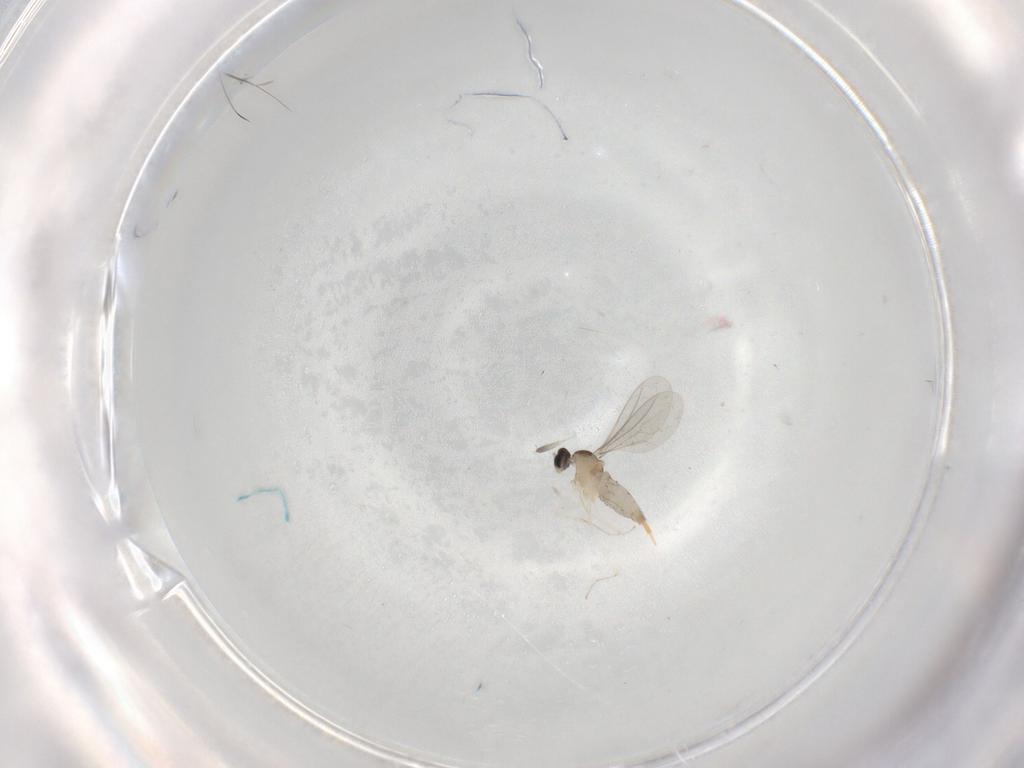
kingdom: Animalia
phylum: Arthropoda
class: Insecta
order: Diptera
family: Cecidomyiidae
